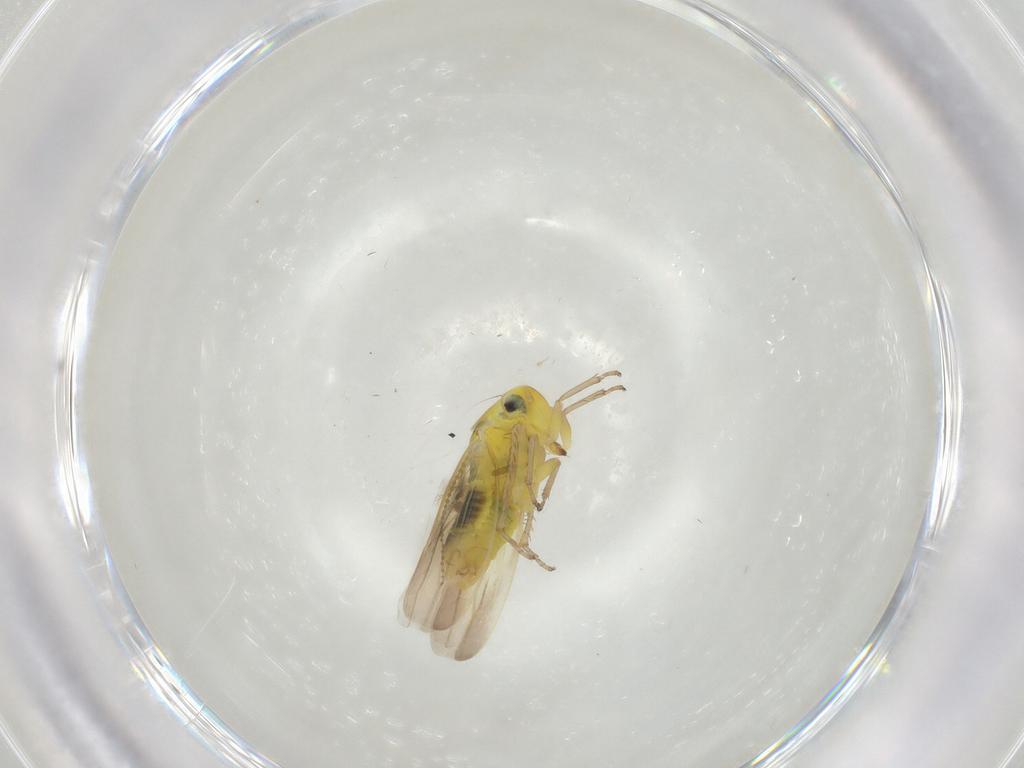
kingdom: Animalia
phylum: Arthropoda
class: Insecta
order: Hemiptera
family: Cicadellidae
